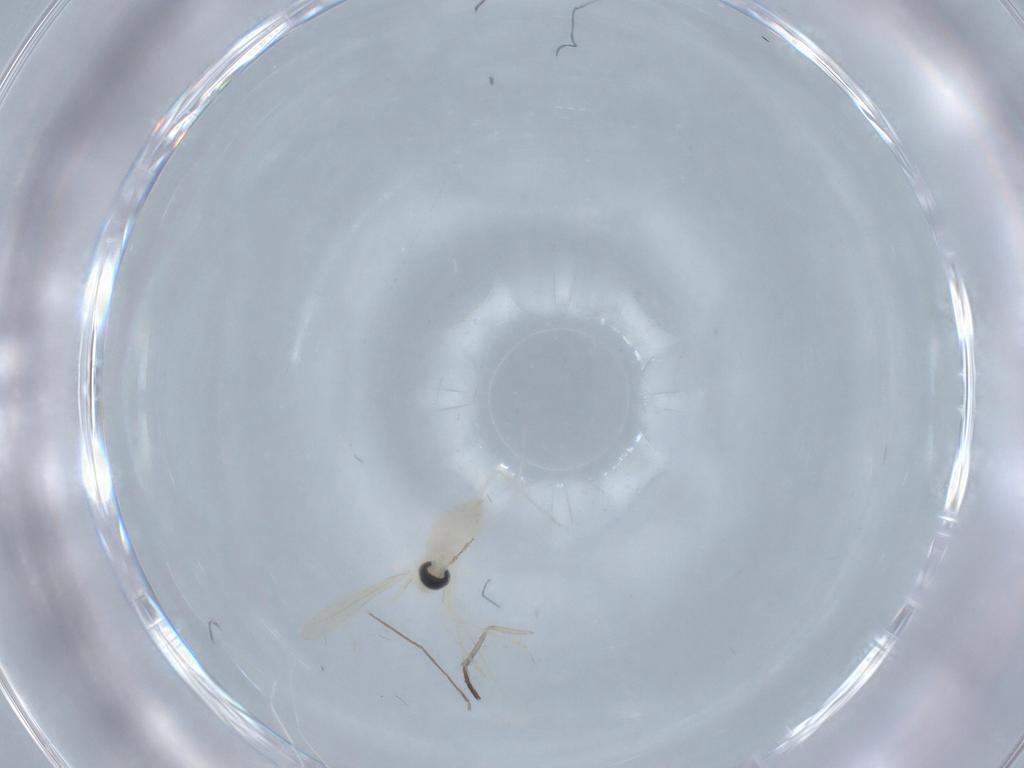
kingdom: Animalia
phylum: Arthropoda
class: Insecta
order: Diptera
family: Chironomidae
